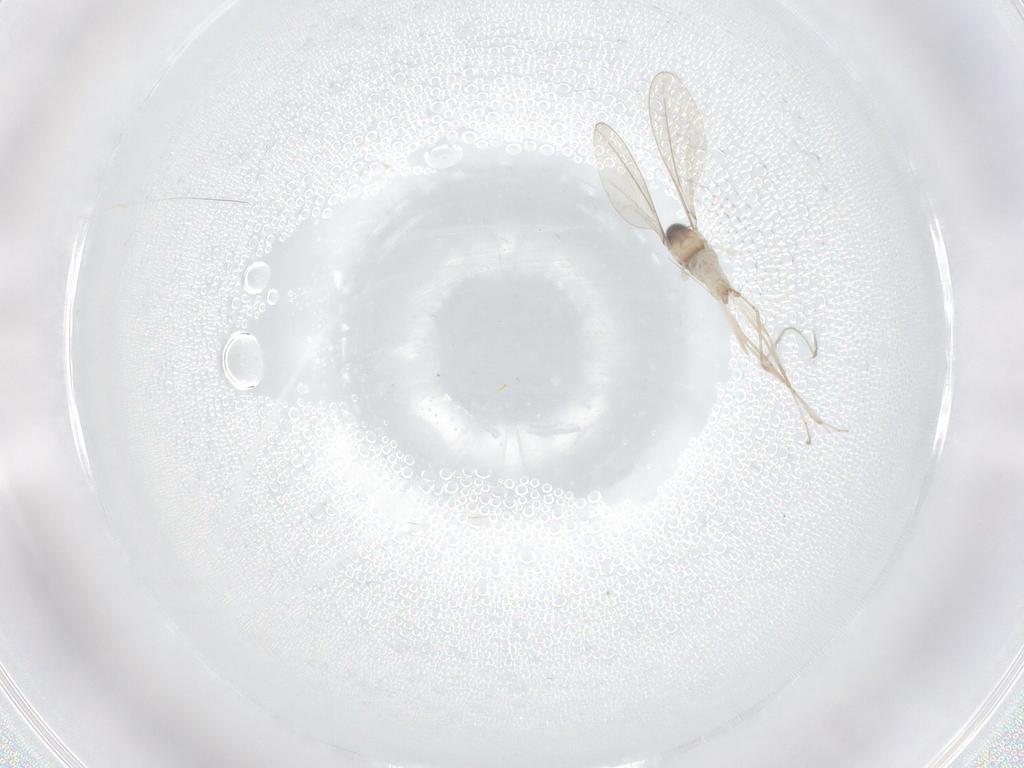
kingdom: Animalia
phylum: Arthropoda
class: Insecta
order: Diptera
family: Cecidomyiidae
